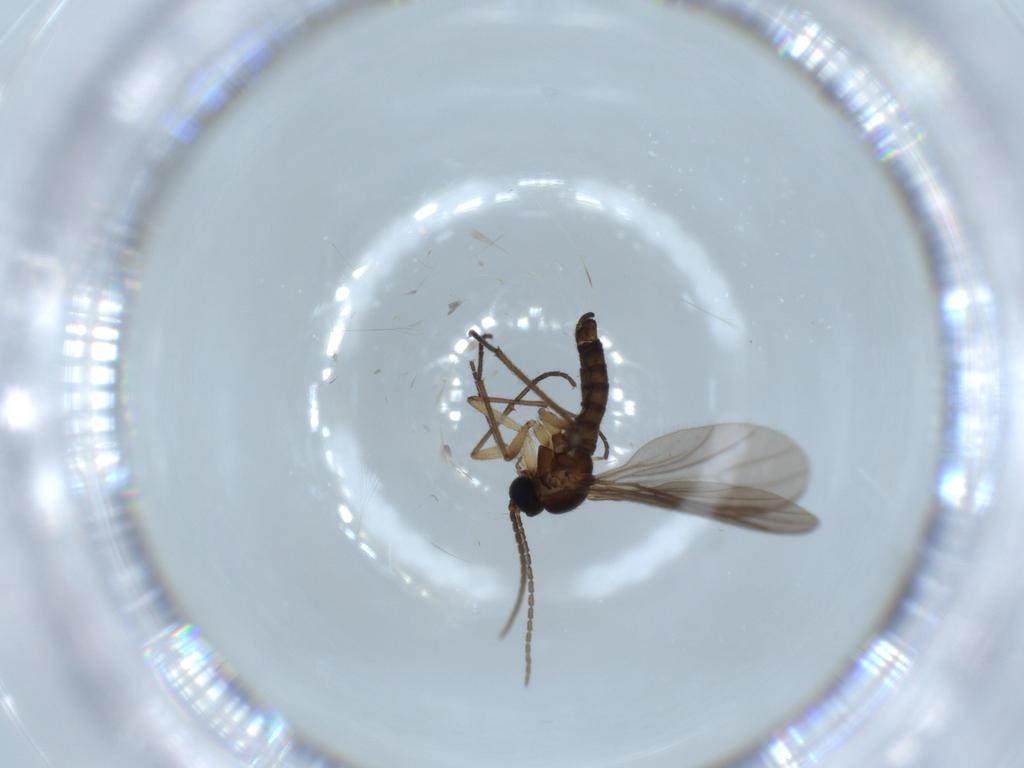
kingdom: Animalia
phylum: Arthropoda
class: Insecta
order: Diptera
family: Sciaridae
